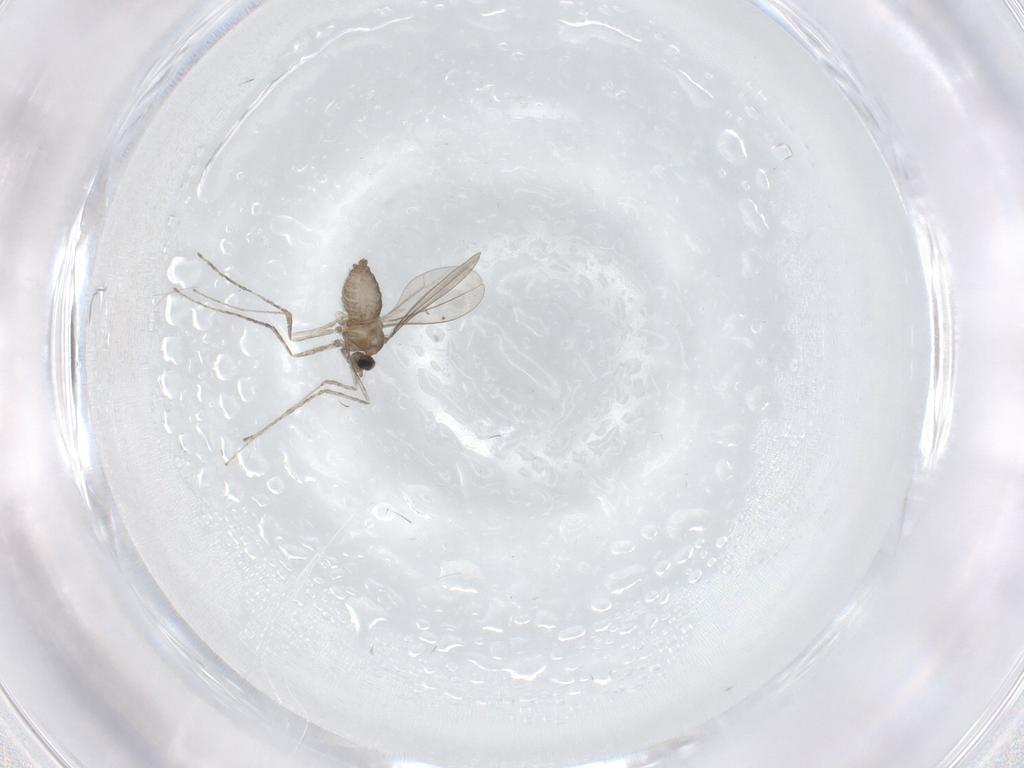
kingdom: Animalia
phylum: Arthropoda
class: Insecta
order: Diptera
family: Cecidomyiidae
